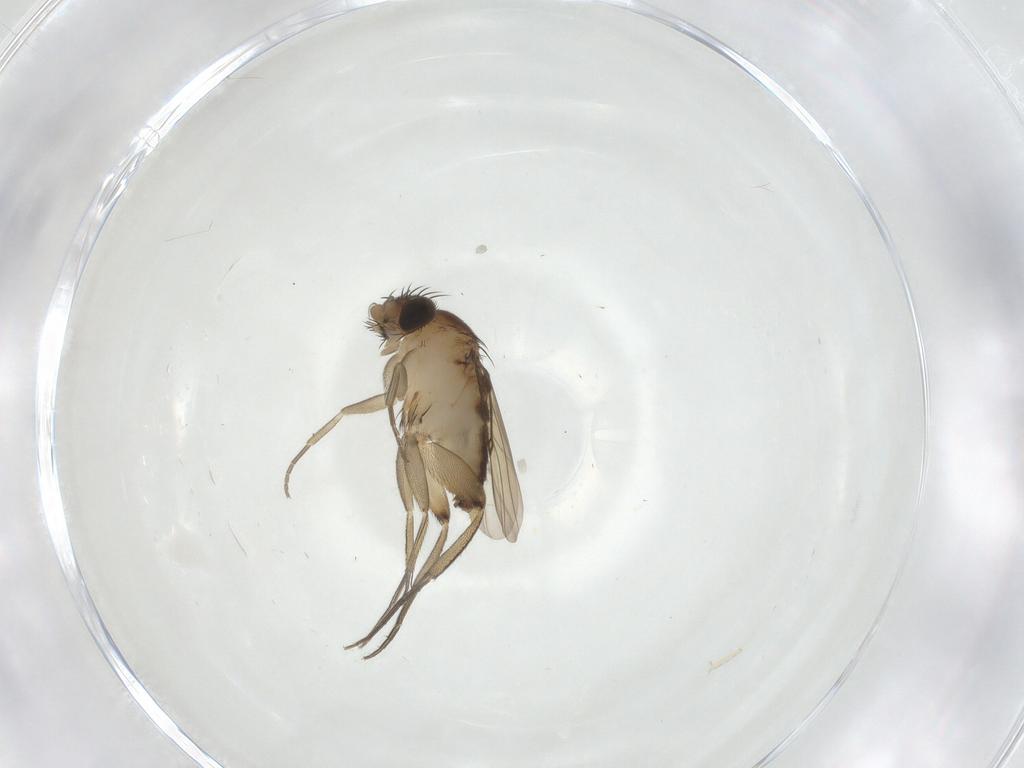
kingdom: Animalia
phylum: Arthropoda
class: Insecta
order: Diptera
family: Phoridae
